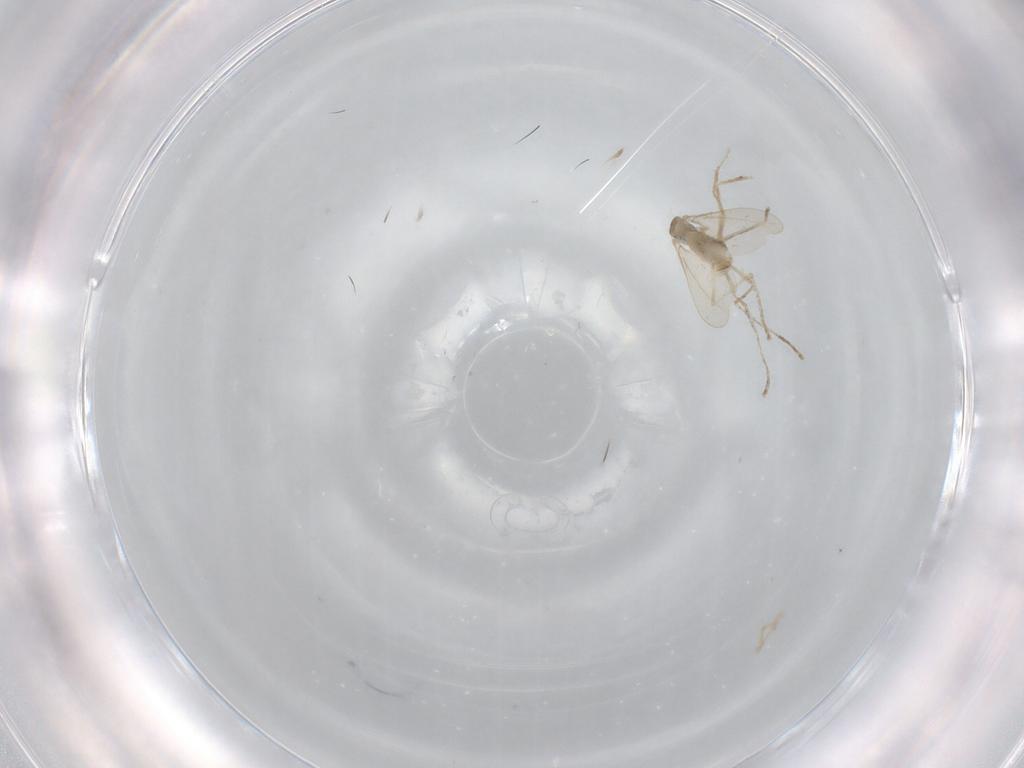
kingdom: Animalia
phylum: Arthropoda
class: Insecta
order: Diptera
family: Cecidomyiidae
